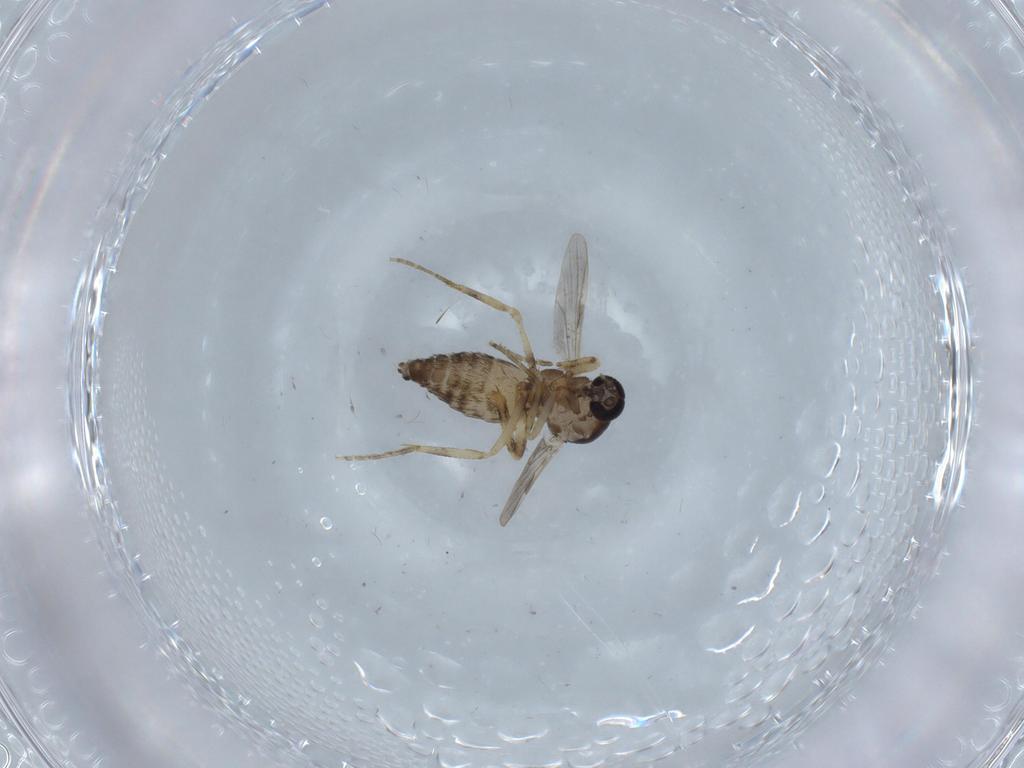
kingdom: Animalia
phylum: Arthropoda
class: Insecta
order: Diptera
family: Ceratopogonidae
